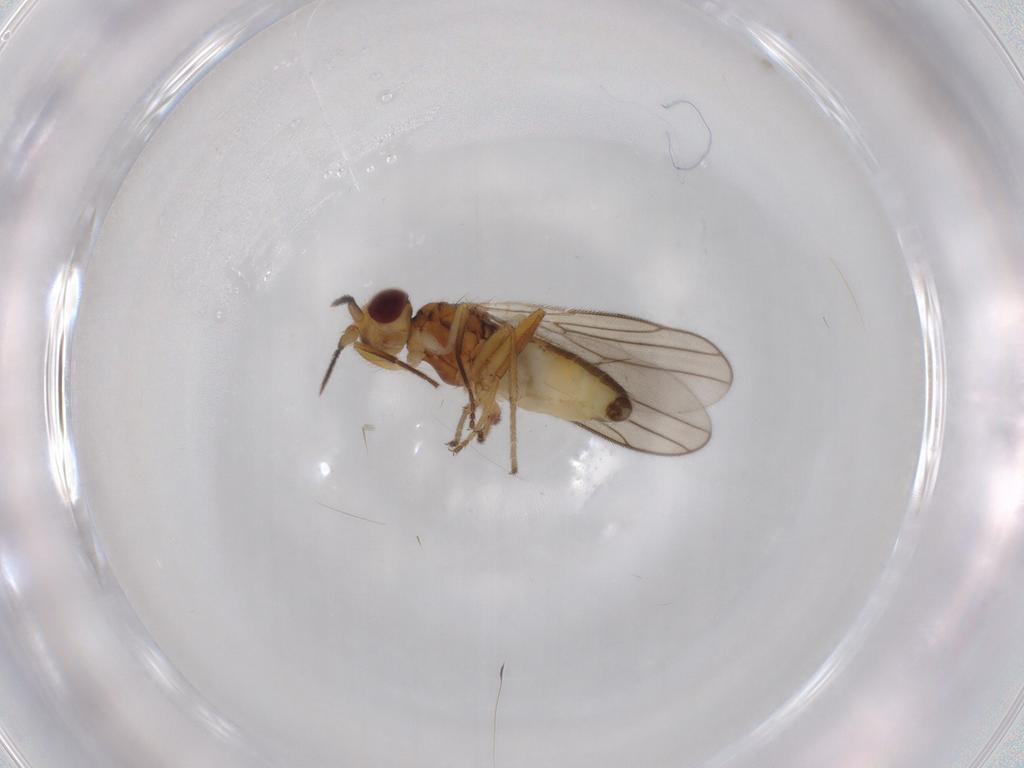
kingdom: Animalia
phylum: Arthropoda
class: Insecta
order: Diptera
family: Chloropidae
